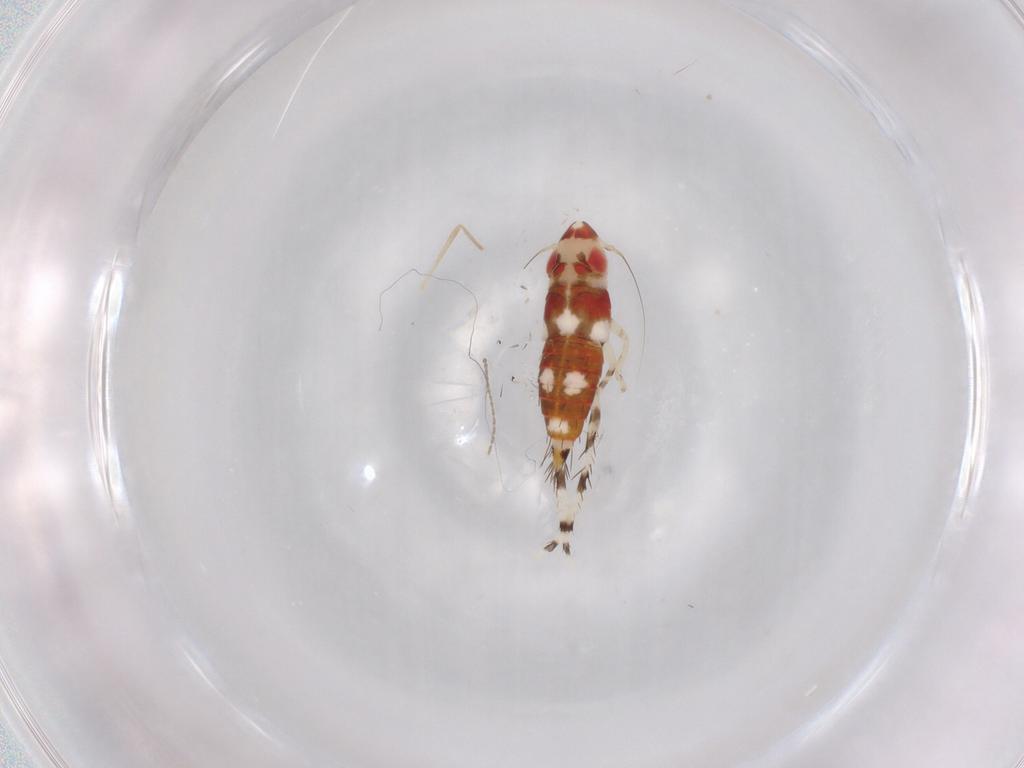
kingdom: Animalia
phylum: Arthropoda
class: Insecta
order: Hemiptera
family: Cicadellidae
